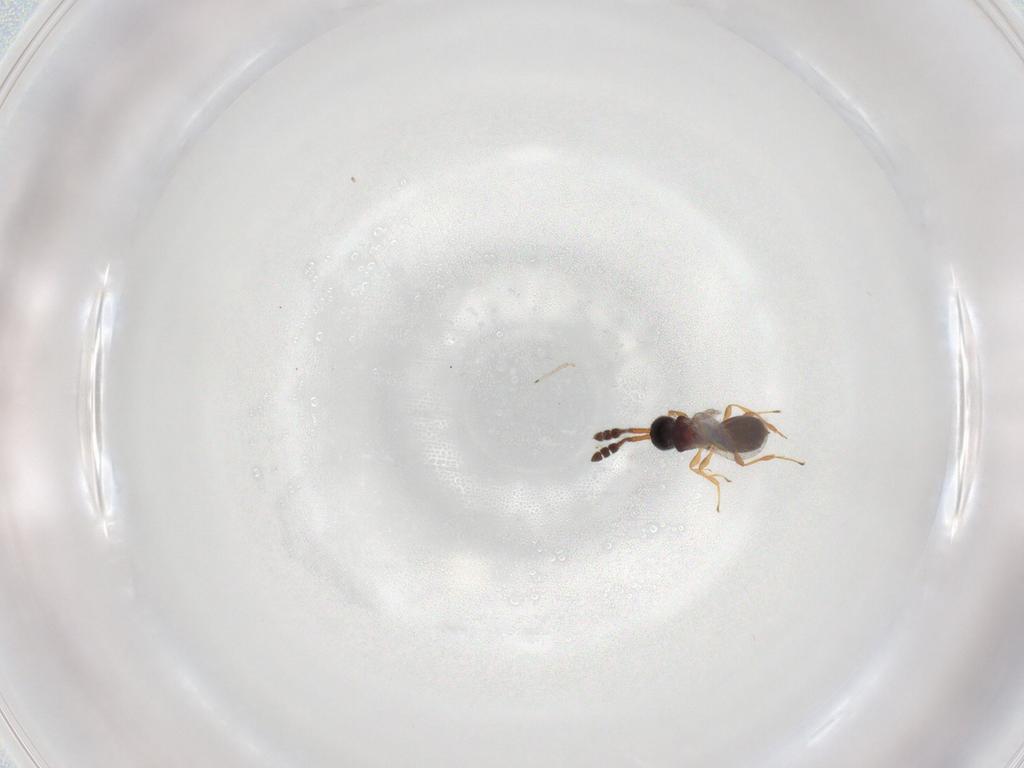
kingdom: Animalia
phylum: Arthropoda
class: Insecta
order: Hymenoptera
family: Diapriidae
